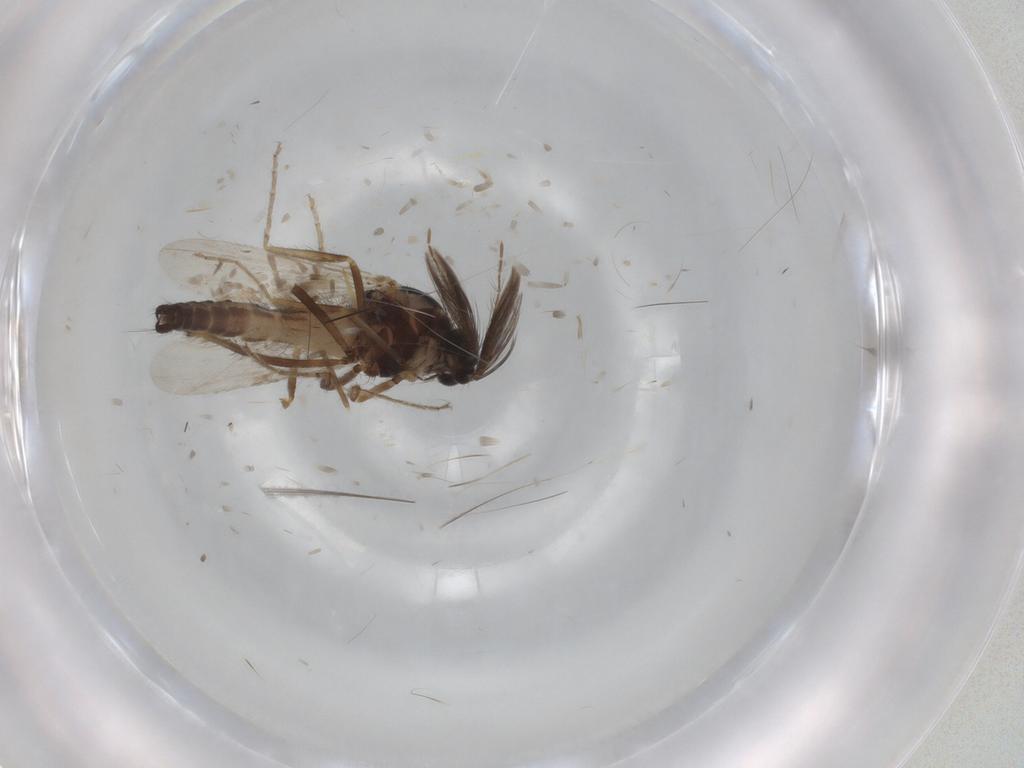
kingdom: Animalia
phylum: Arthropoda
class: Insecta
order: Diptera
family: Ceratopogonidae
